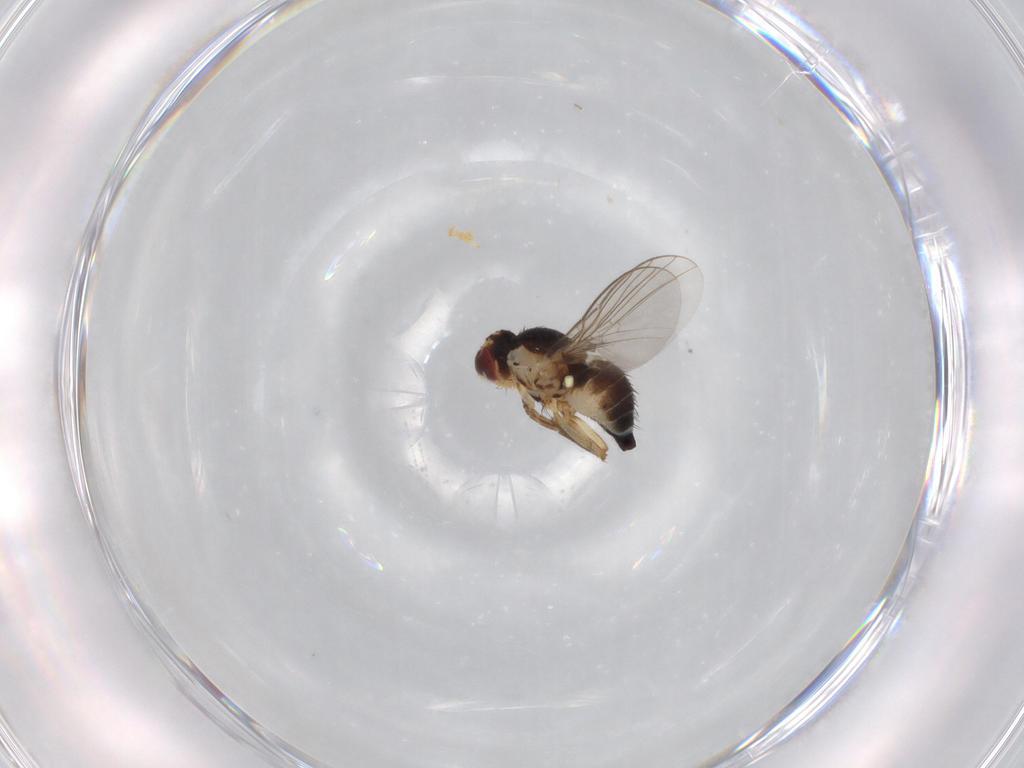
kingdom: Animalia
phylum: Arthropoda
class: Insecta
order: Diptera
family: Agromyzidae
